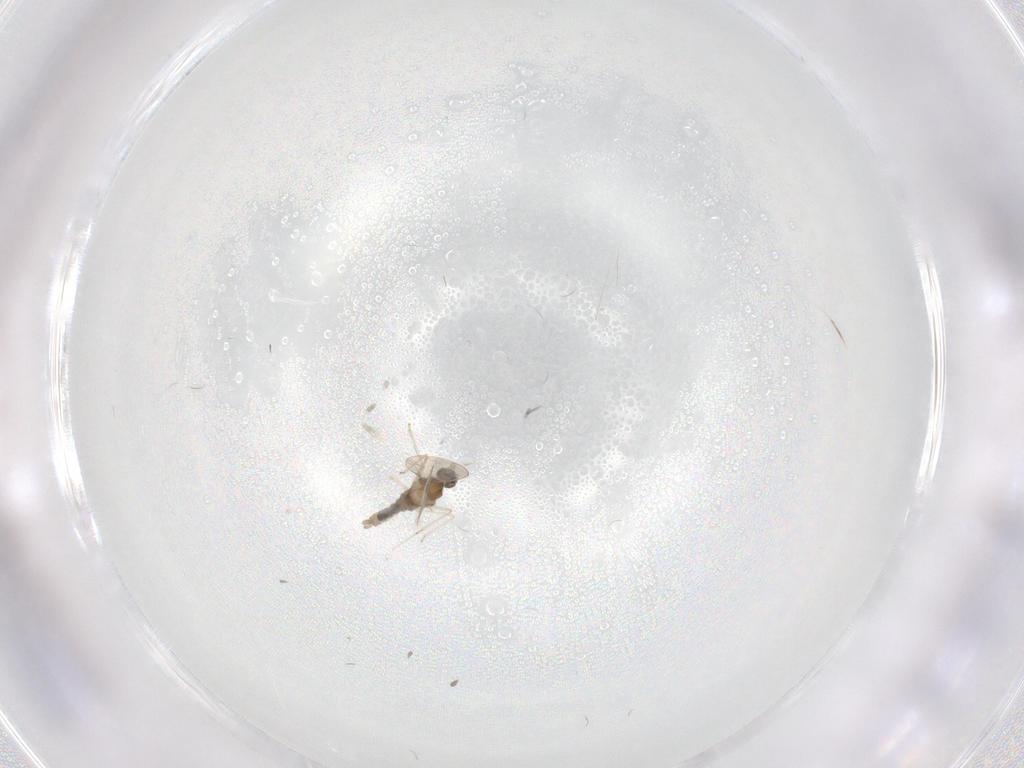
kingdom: Animalia
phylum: Arthropoda
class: Insecta
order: Diptera
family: Cecidomyiidae
